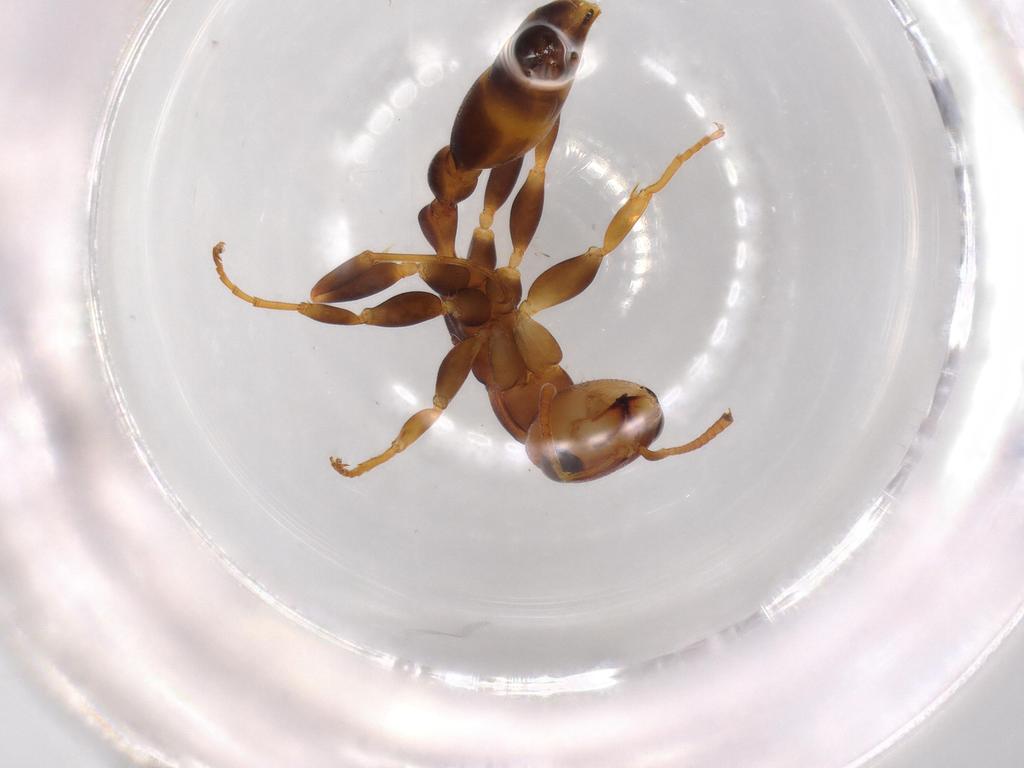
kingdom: Animalia
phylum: Arthropoda
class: Insecta
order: Hymenoptera
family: Formicidae
